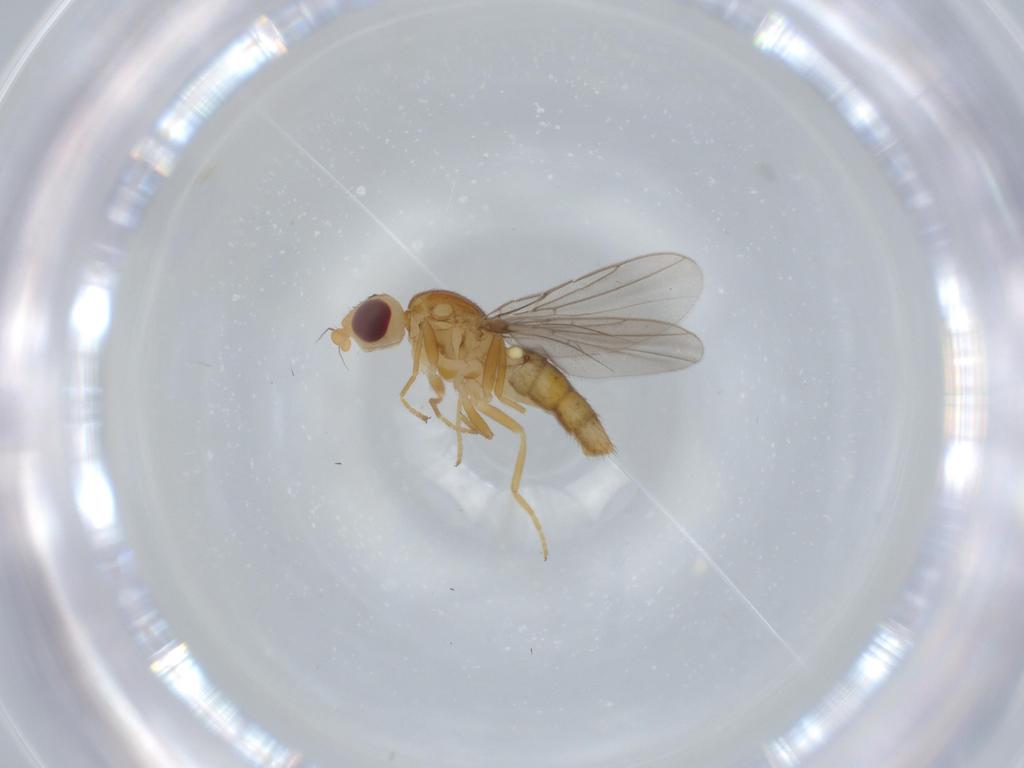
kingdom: Animalia
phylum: Arthropoda
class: Insecta
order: Diptera
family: Chloropidae
